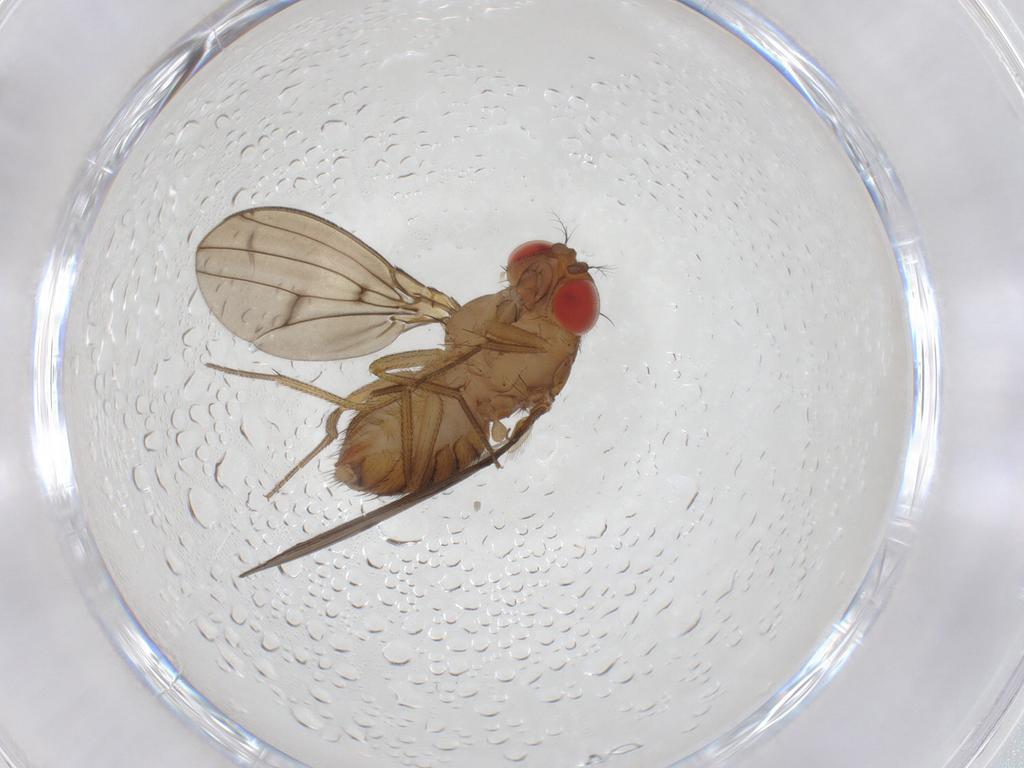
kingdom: Animalia
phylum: Arthropoda
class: Insecta
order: Diptera
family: Drosophilidae
